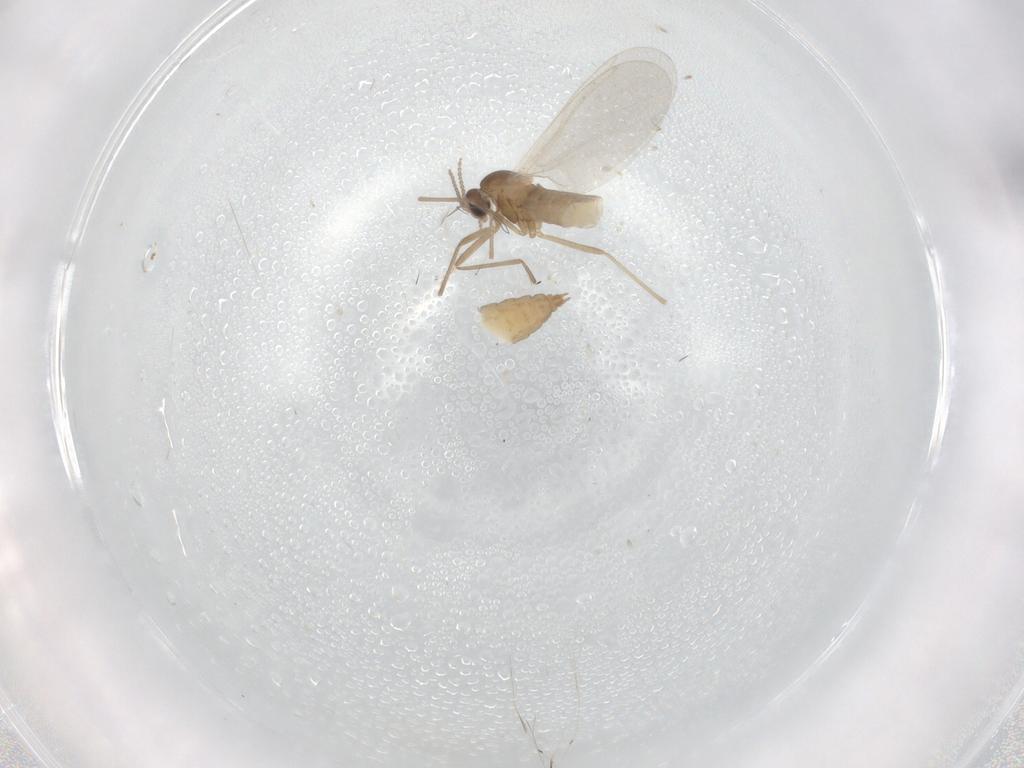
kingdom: Animalia
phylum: Arthropoda
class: Insecta
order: Diptera
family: Cecidomyiidae
